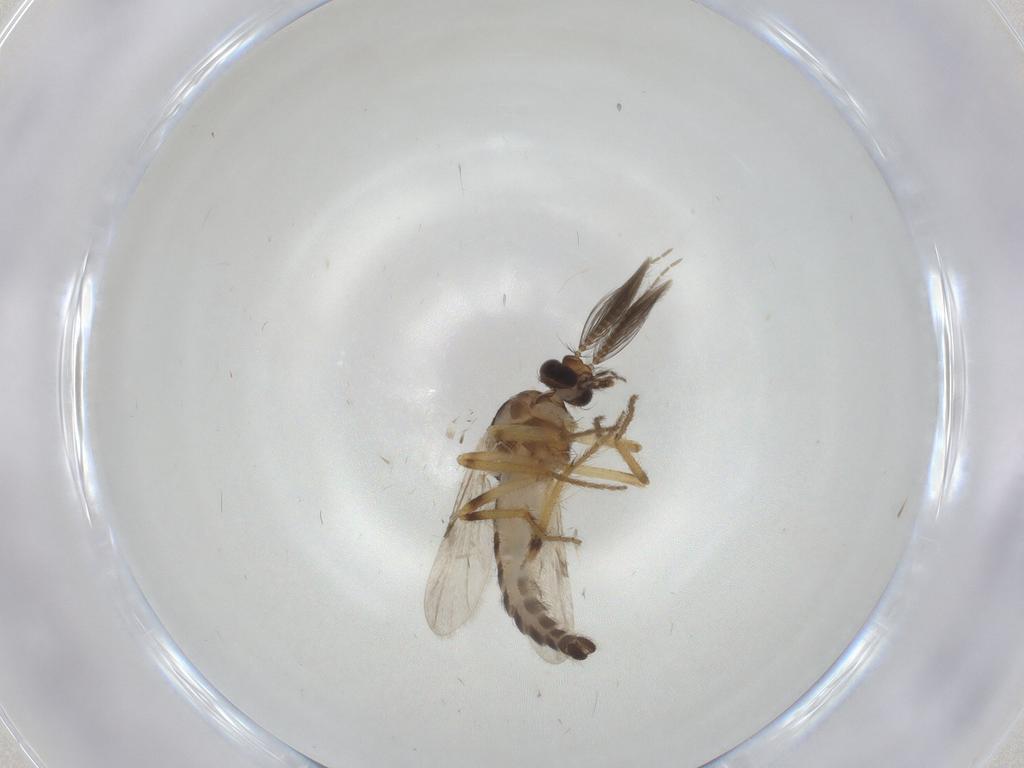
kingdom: Animalia
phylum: Arthropoda
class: Insecta
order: Diptera
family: Ceratopogonidae
